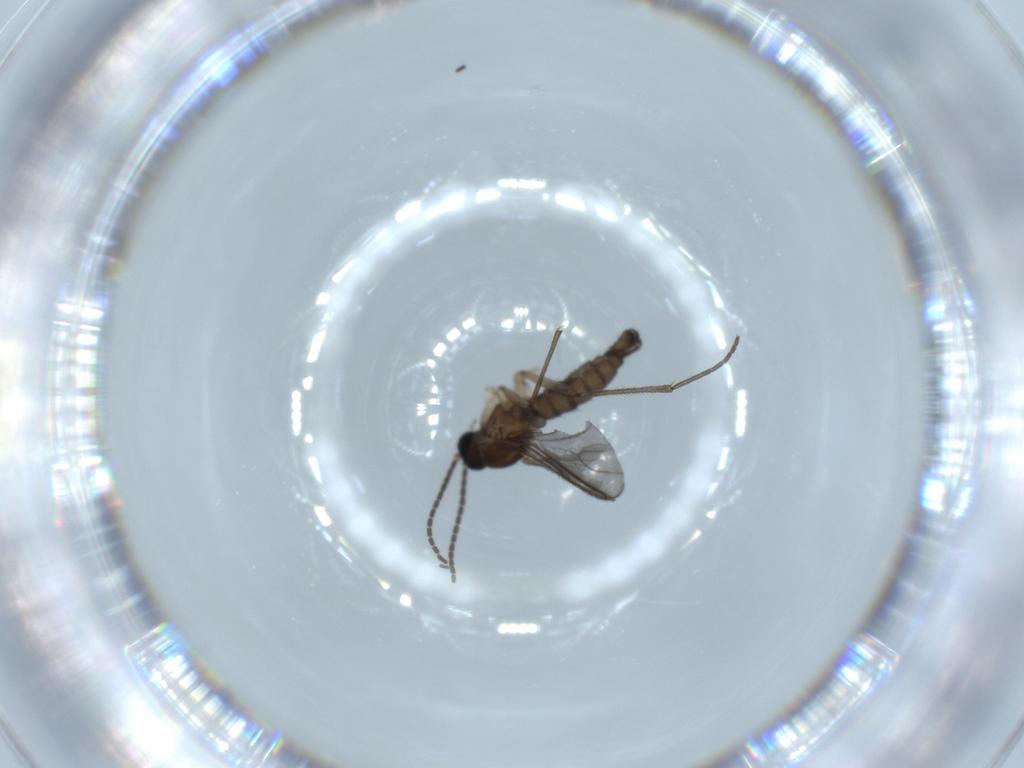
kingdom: Animalia
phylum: Arthropoda
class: Insecta
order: Diptera
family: Sciaridae
